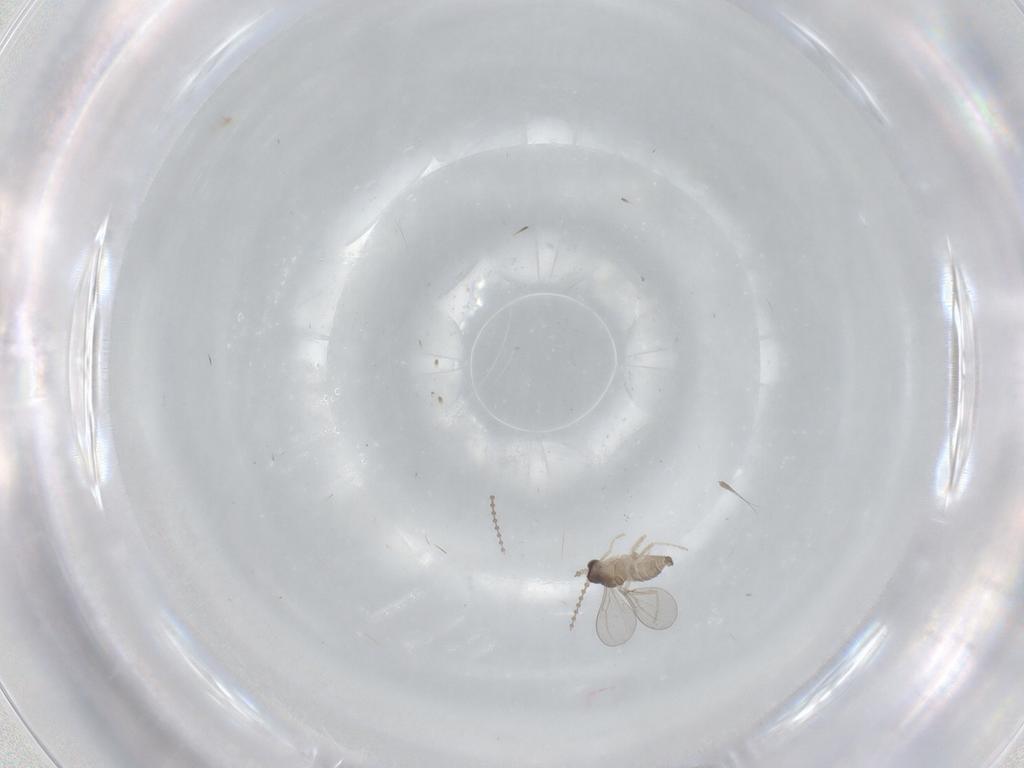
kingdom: Animalia
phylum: Arthropoda
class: Insecta
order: Diptera
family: Cecidomyiidae
